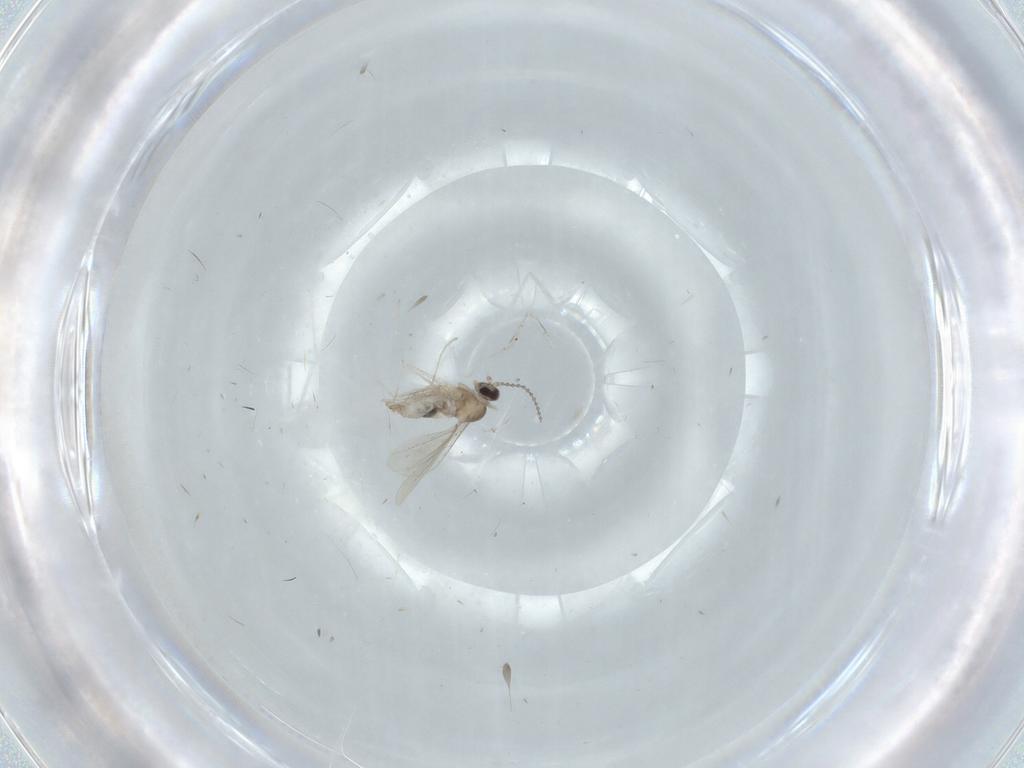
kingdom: Animalia
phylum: Arthropoda
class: Insecta
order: Diptera
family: Cecidomyiidae
